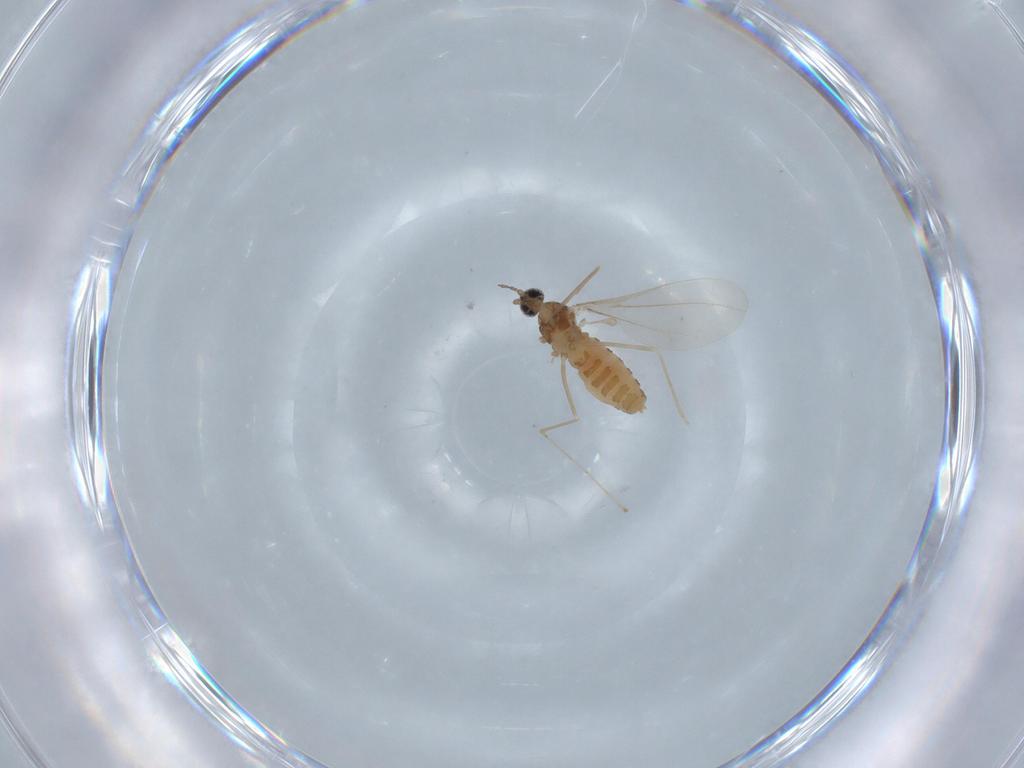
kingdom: Animalia
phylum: Arthropoda
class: Insecta
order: Diptera
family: Cecidomyiidae
